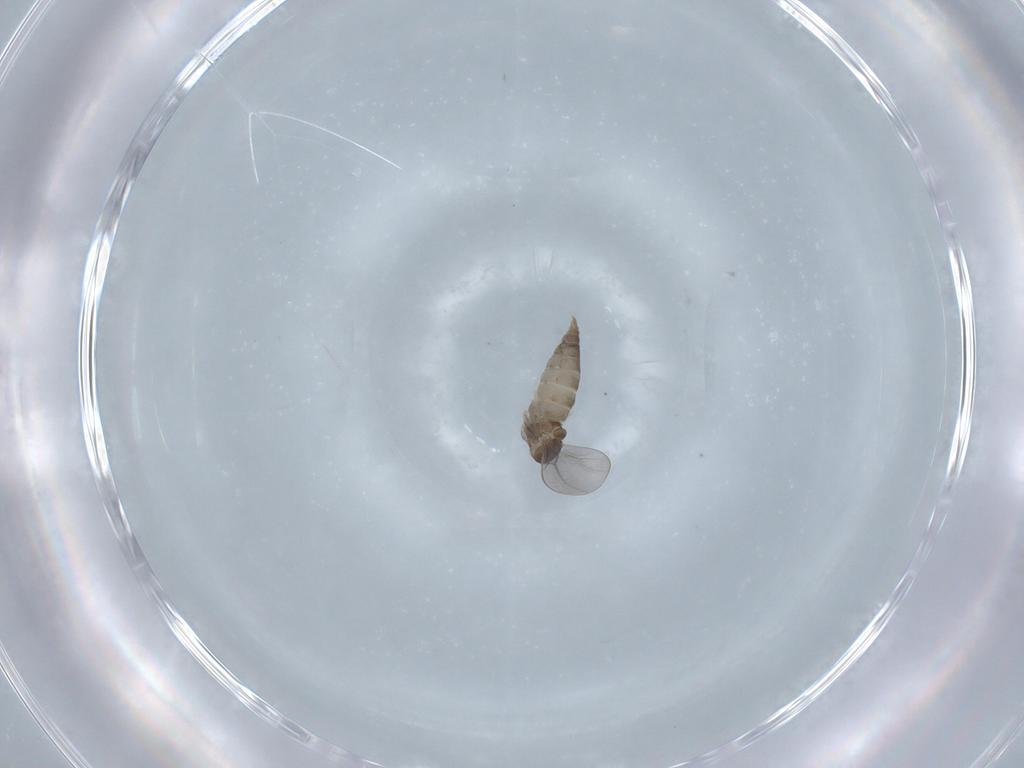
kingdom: Animalia
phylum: Arthropoda
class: Insecta
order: Diptera
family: Cecidomyiidae
